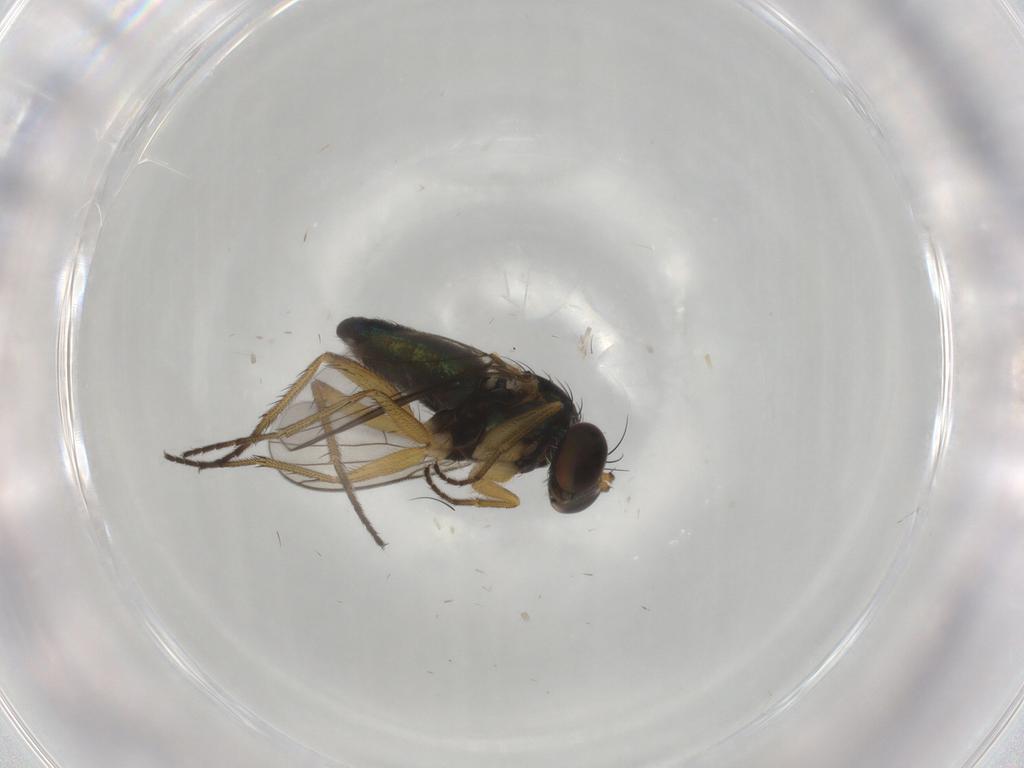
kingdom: Animalia
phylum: Arthropoda
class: Insecta
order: Diptera
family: Dolichopodidae
